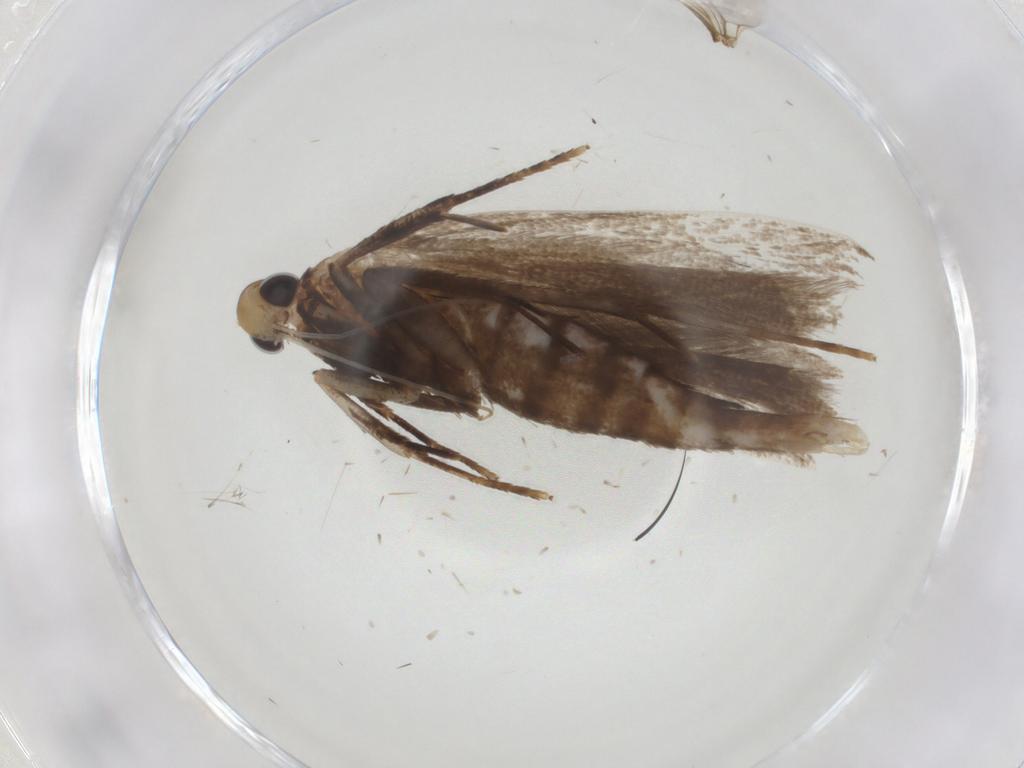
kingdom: Animalia
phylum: Arthropoda
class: Insecta
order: Lepidoptera
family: Gelechiidae
